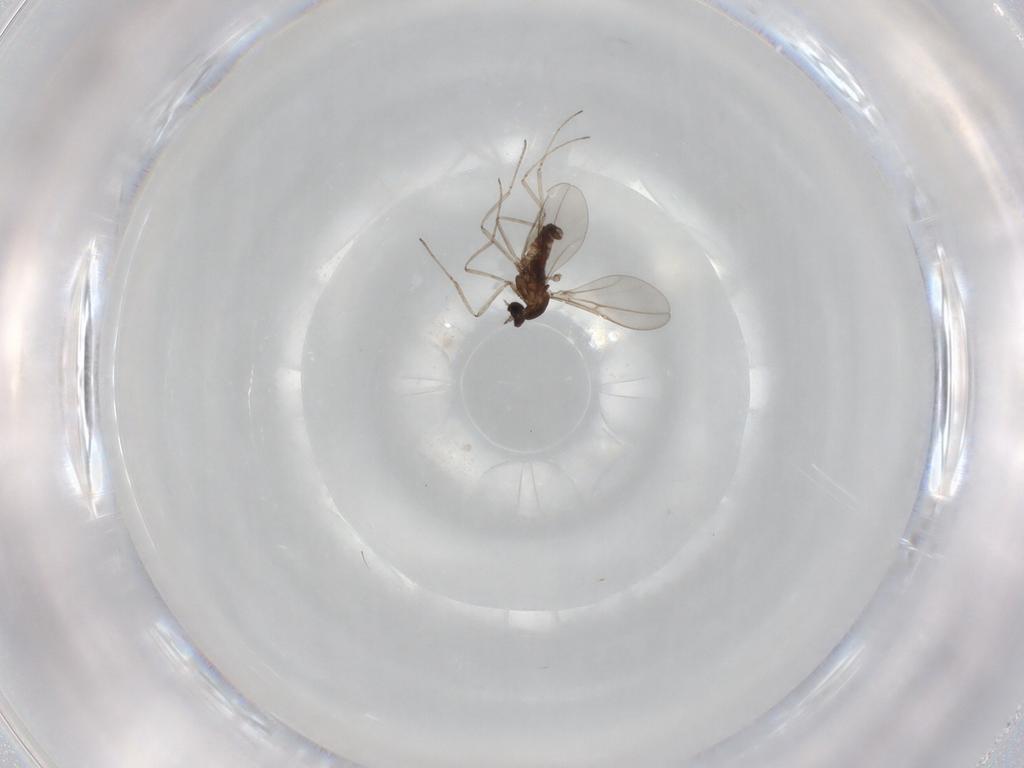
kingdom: Animalia
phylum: Arthropoda
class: Insecta
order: Diptera
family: Cecidomyiidae
